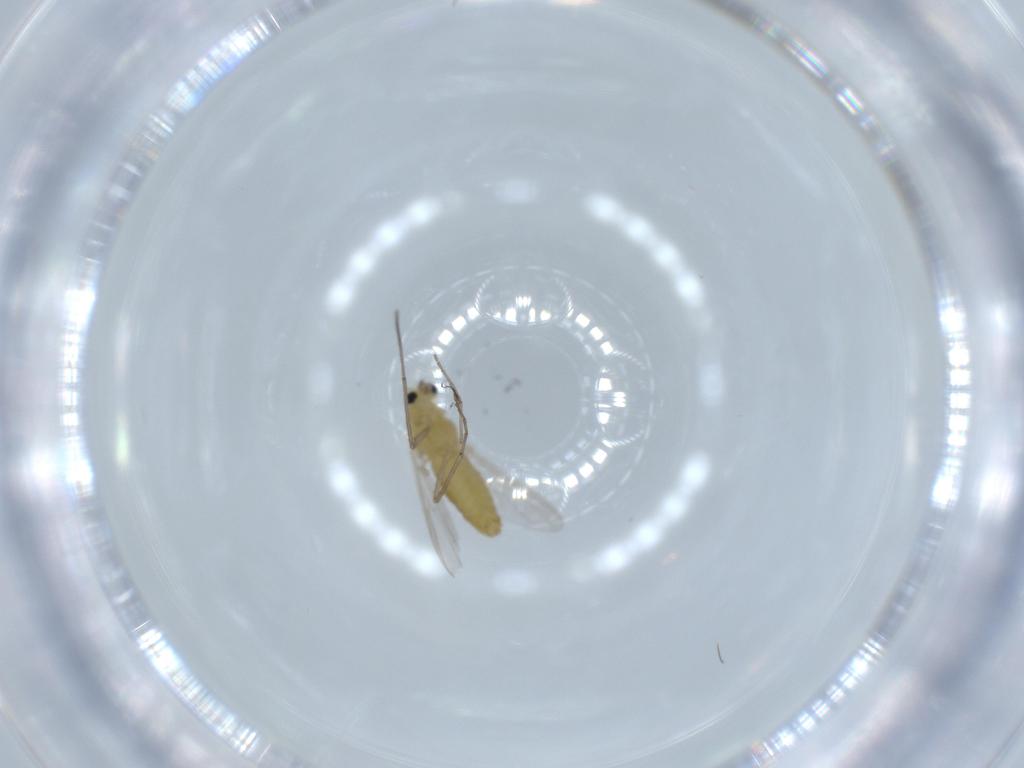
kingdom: Animalia
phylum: Arthropoda
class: Insecta
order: Diptera
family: Chironomidae
